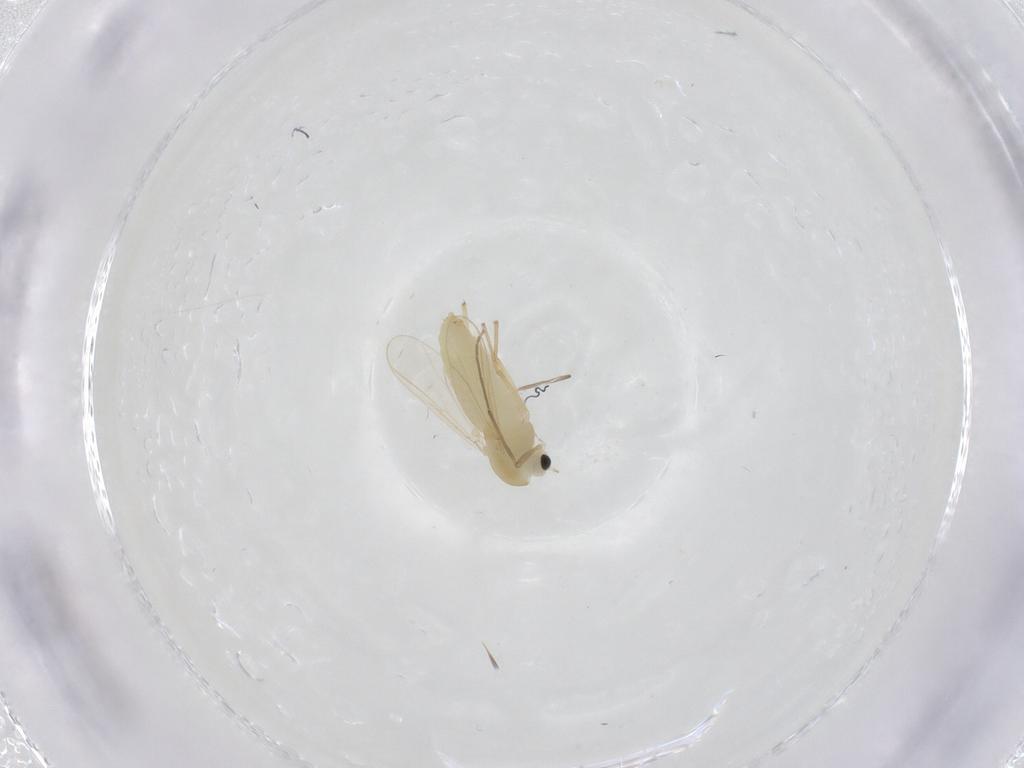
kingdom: Animalia
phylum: Arthropoda
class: Insecta
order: Diptera
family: Chironomidae
